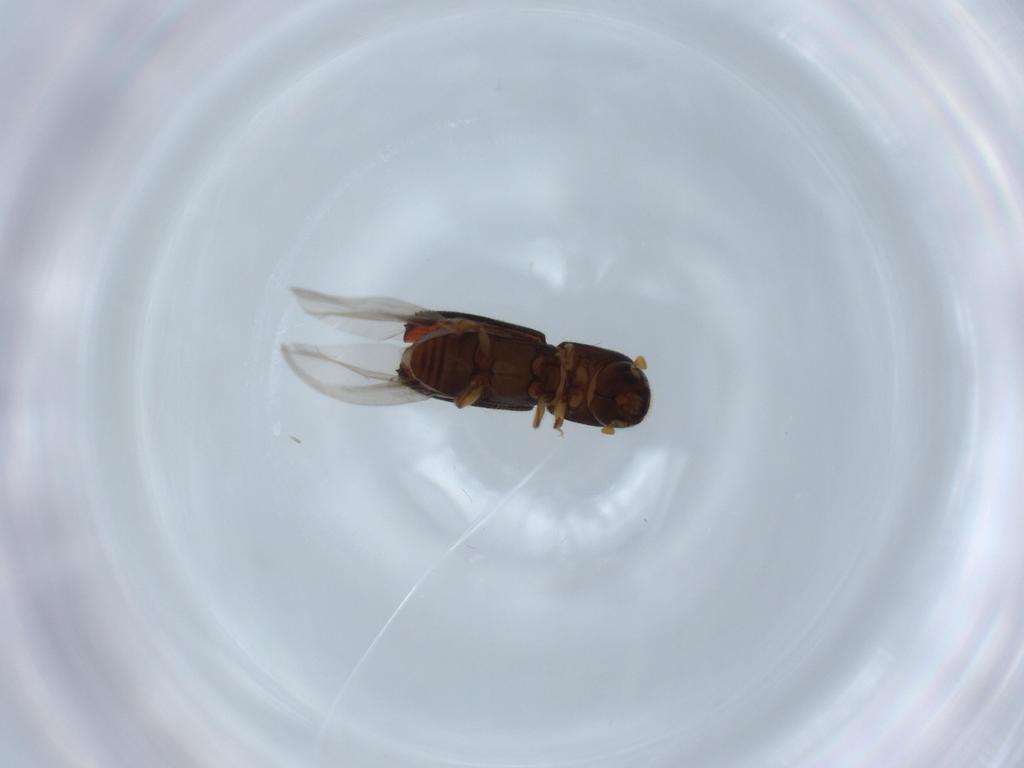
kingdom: Animalia
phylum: Arthropoda
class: Insecta
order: Coleoptera
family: Curculionidae
